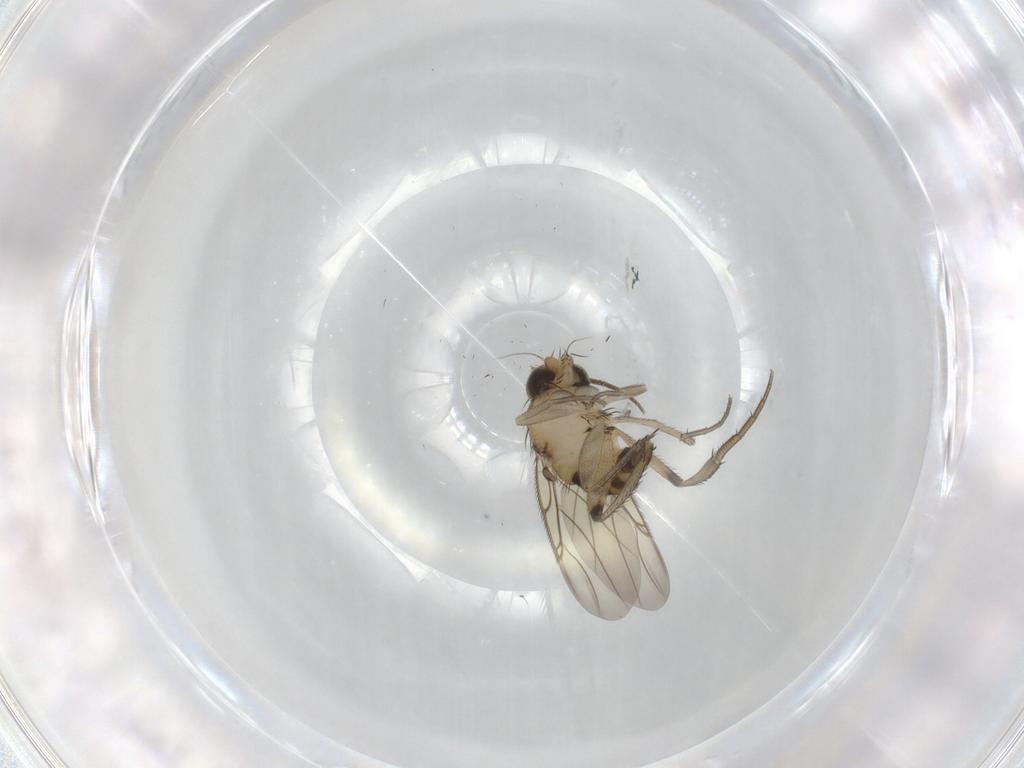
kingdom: Animalia
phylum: Arthropoda
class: Insecta
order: Diptera
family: Phoridae
